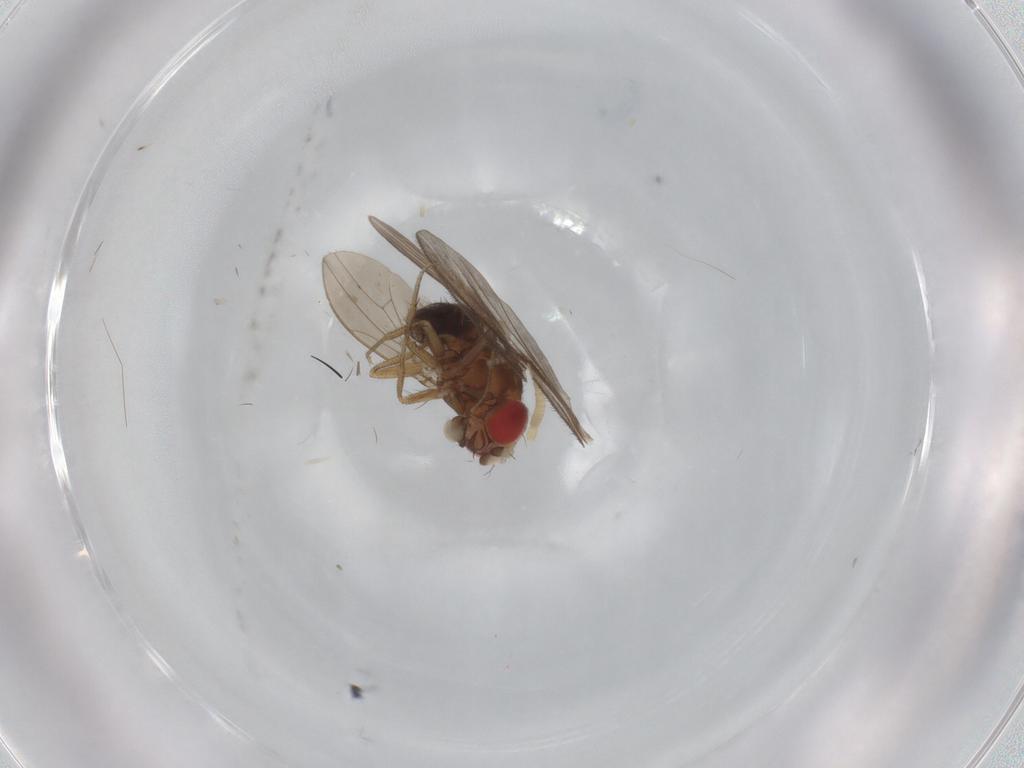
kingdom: Animalia
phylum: Arthropoda
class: Insecta
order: Diptera
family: Drosophilidae
